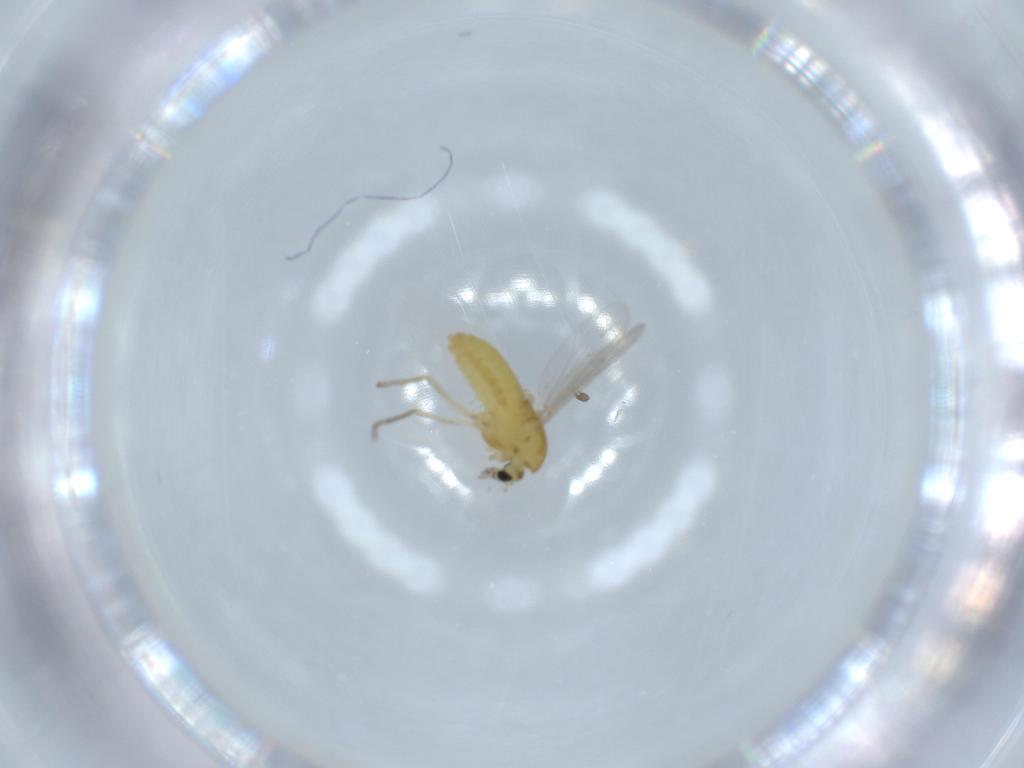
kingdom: Animalia
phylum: Arthropoda
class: Insecta
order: Diptera
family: Chironomidae
